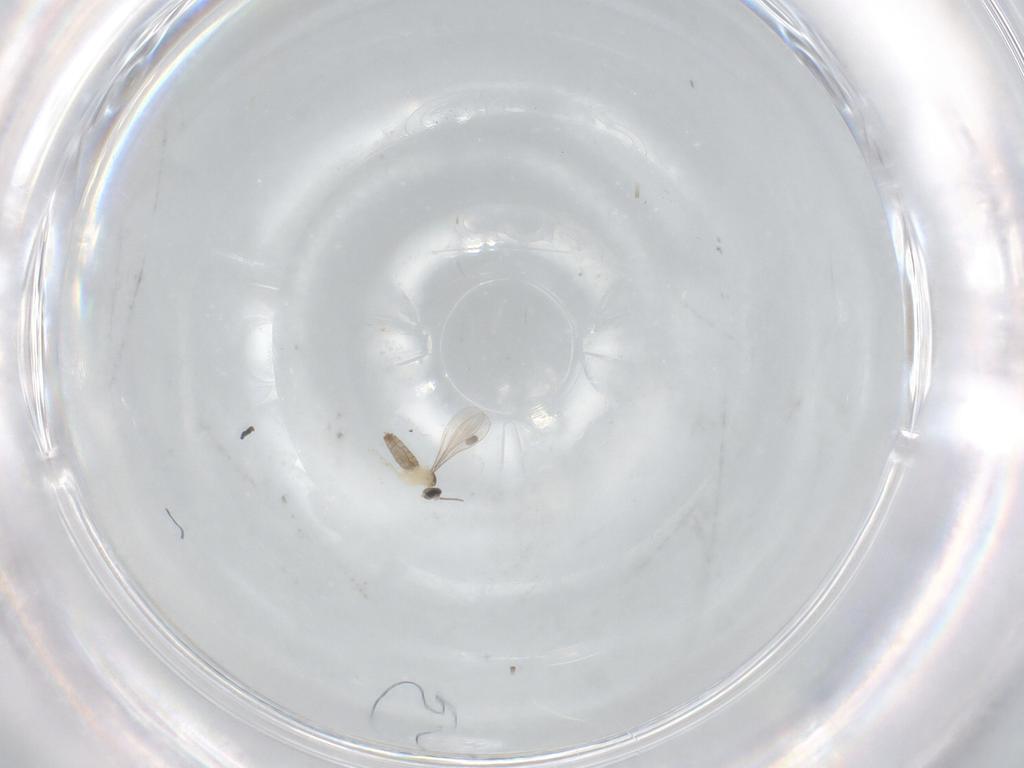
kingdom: Animalia
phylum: Arthropoda
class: Insecta
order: Diptera
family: Cecidomyiidae
